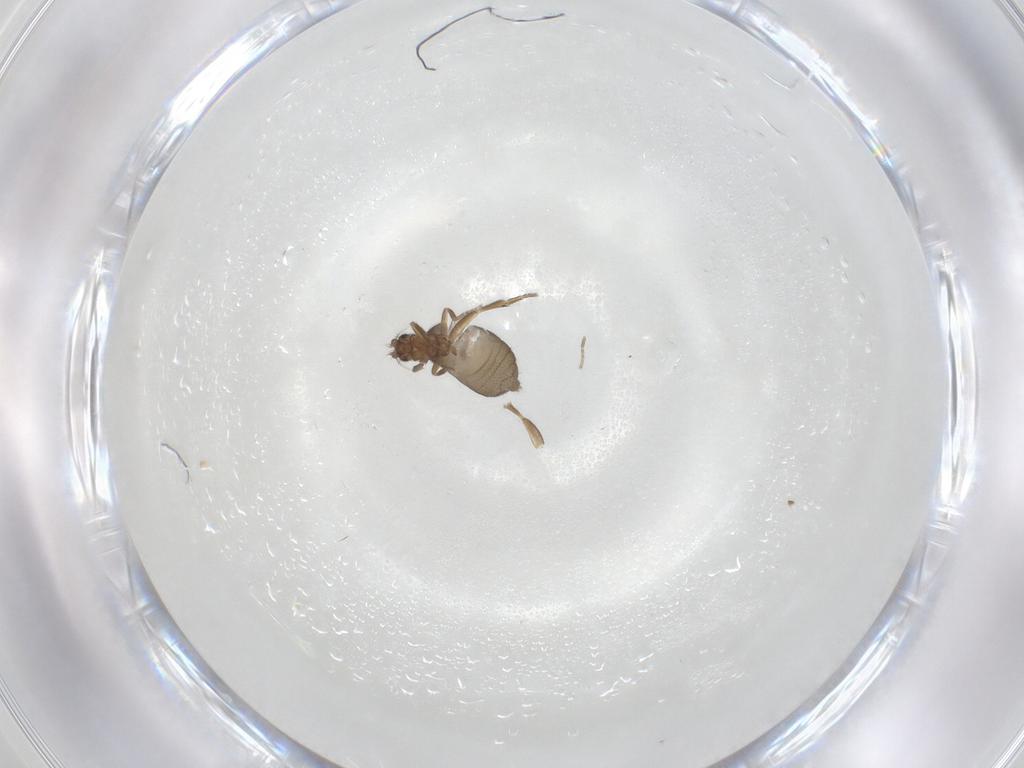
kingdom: Animalia
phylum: Arthropoda
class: Insecta
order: Diptera
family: Phoridae
